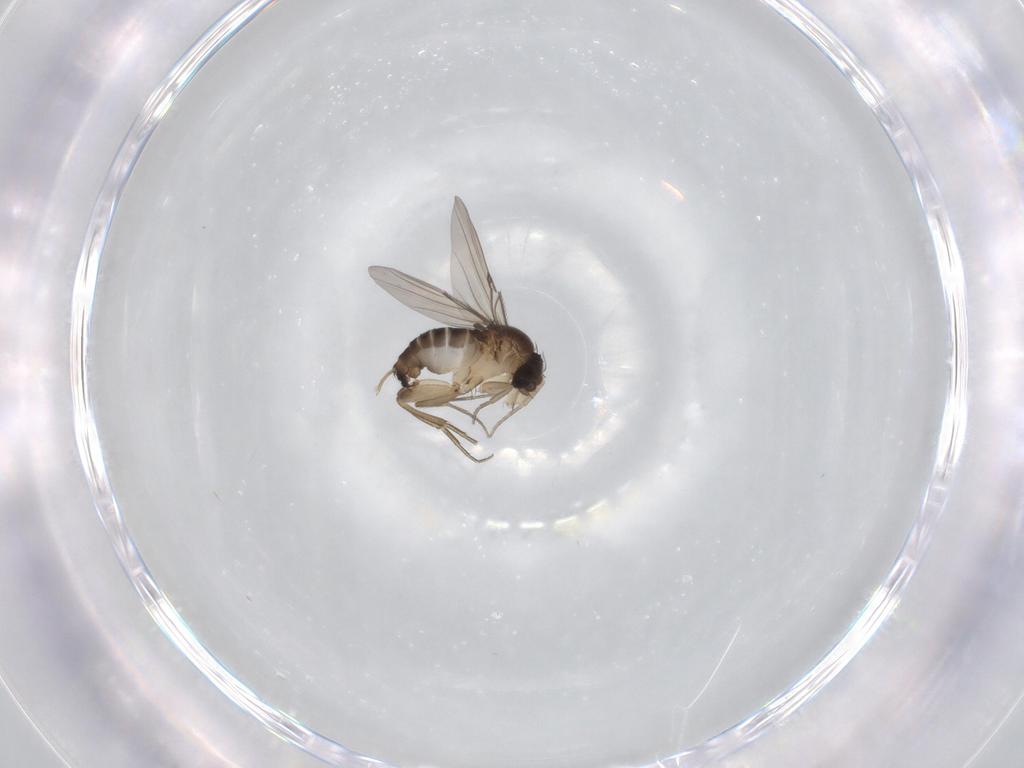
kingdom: Animalia
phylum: Arthropoda
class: Insecta
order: Diptera
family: Phoridae
